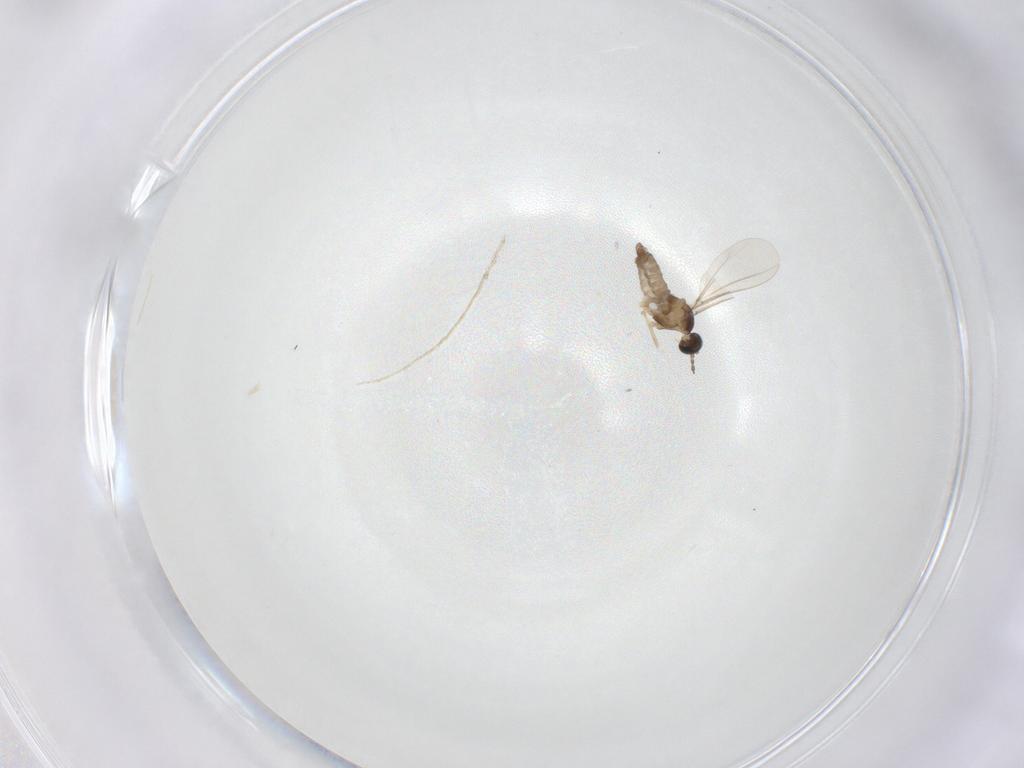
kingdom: Animalia
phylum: Arthropoda
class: Insecta
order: Diptera
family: Cecidomyiidae
